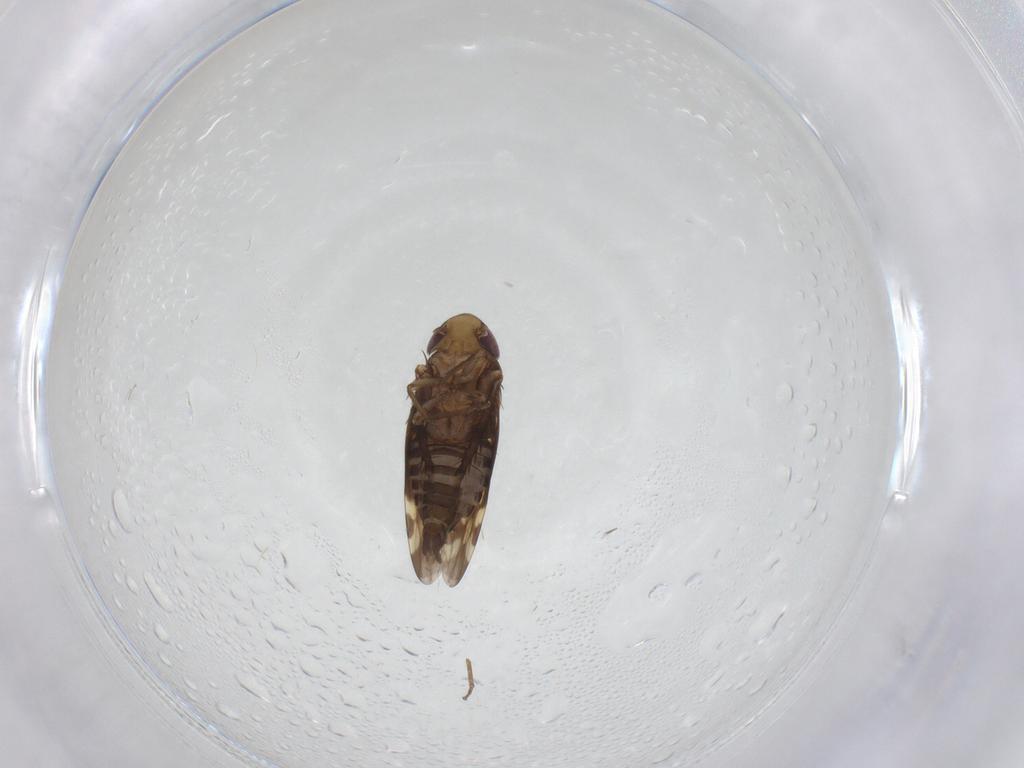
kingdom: Animalia
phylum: Arthropoda
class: Insecta
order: Hemiptera
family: Cicadellidae
